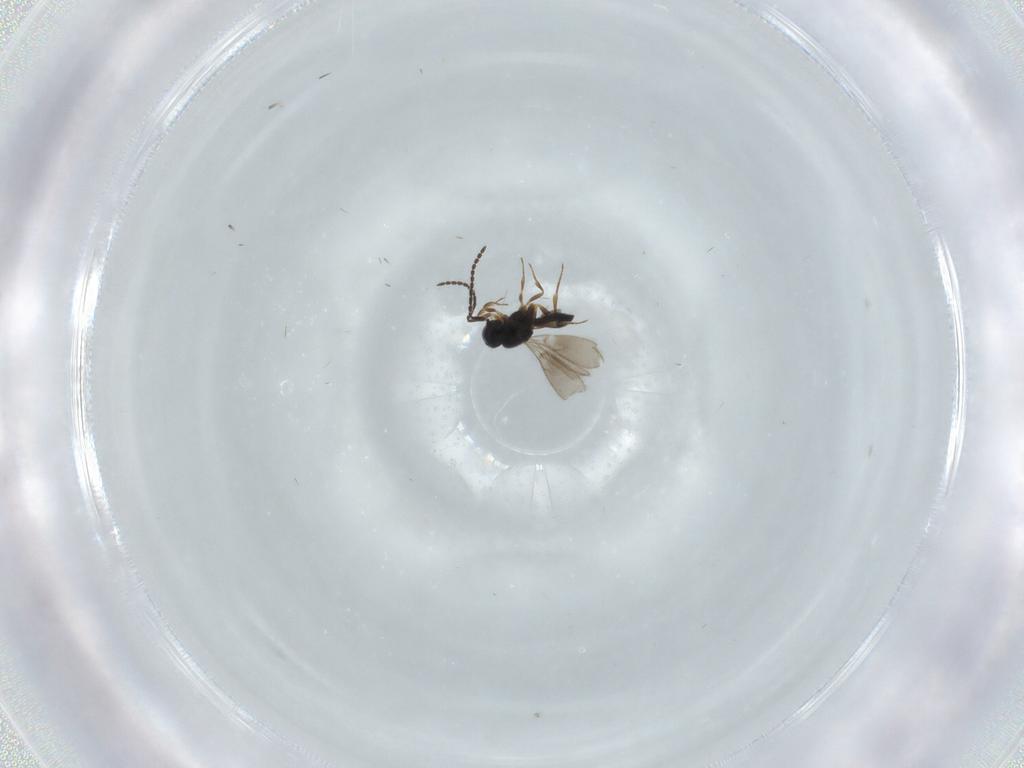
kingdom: Animalia
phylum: Arthropoda
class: Insecta
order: Hymenoptera
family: Scelionidae
